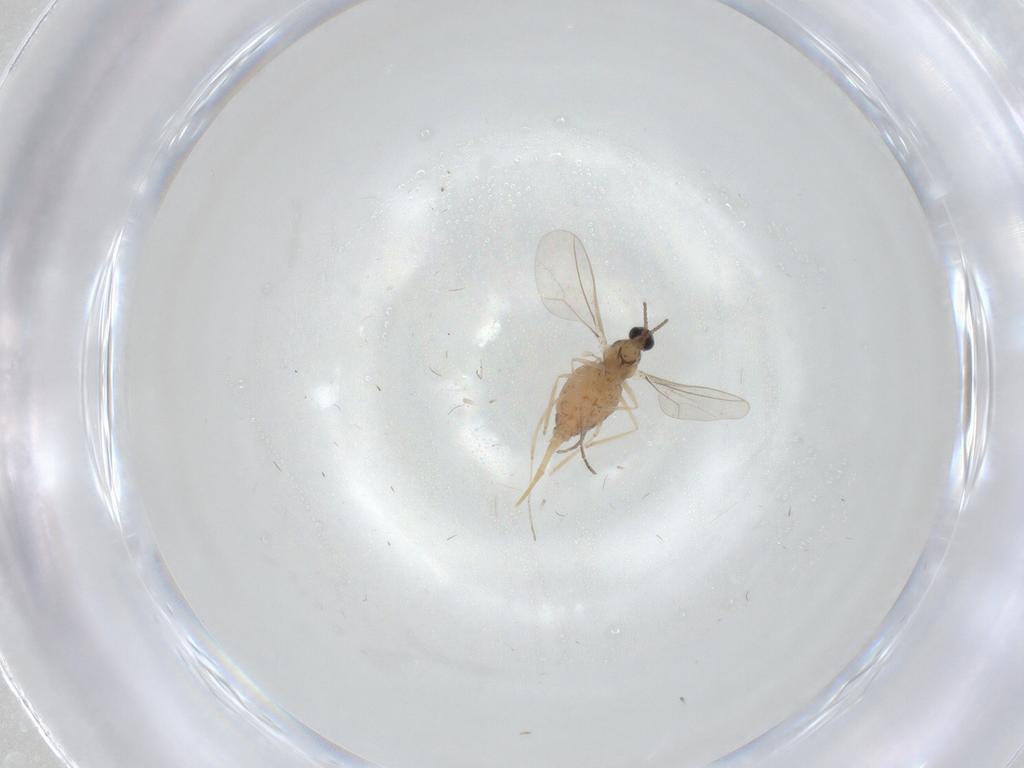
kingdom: Animalia
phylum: Arthropoda
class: Insecta
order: Diptera
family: Cecidomyiidae
